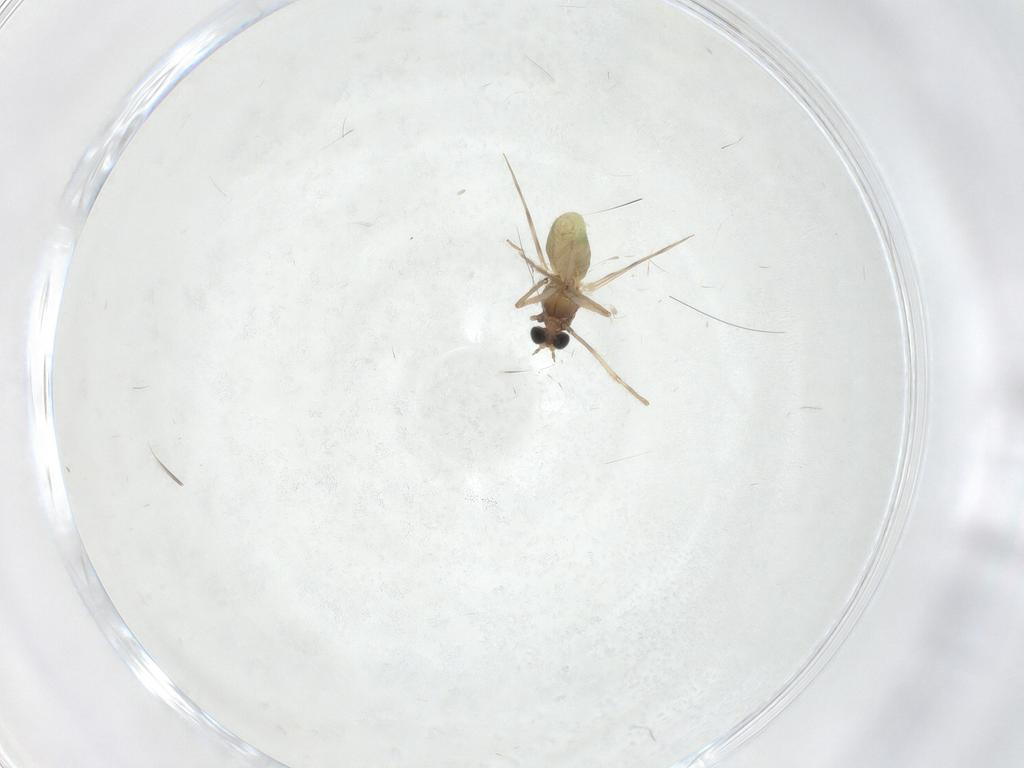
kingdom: Animalia
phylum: Arthropoda
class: Insecta
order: Diptera
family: Chironomidae
